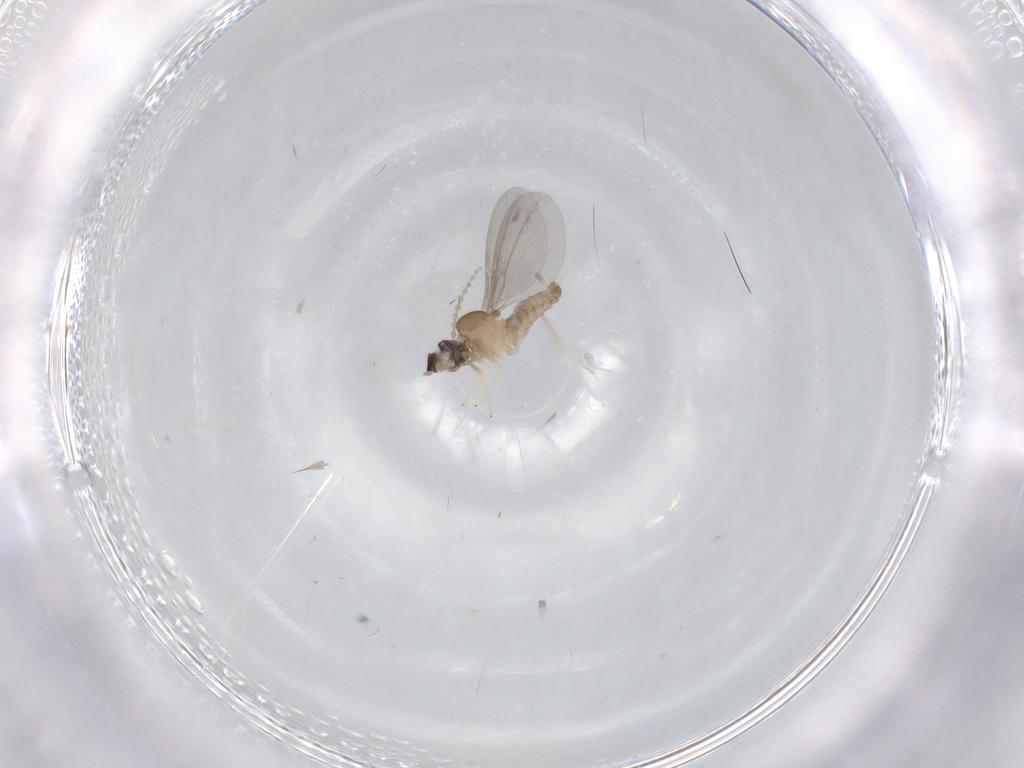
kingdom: Animalia
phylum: Arthropoda
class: Insecta
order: Diptera
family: Cecidomyiidae
